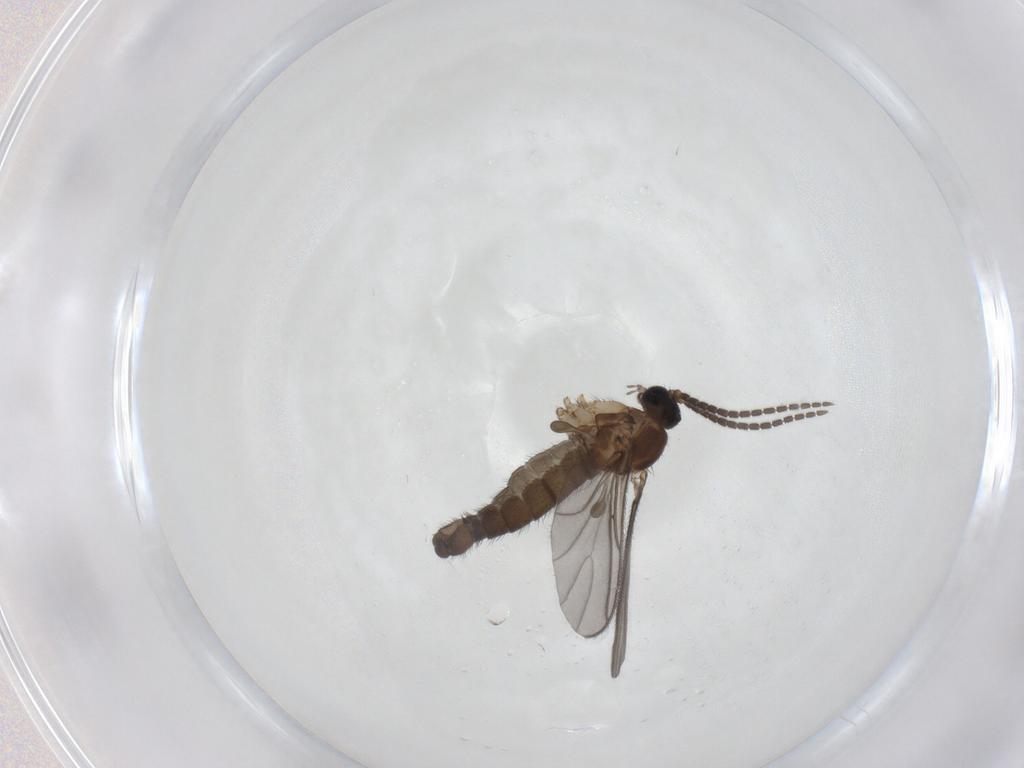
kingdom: Animalia
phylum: Arthropoda
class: Insecta
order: Diptera
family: Sciaridae
